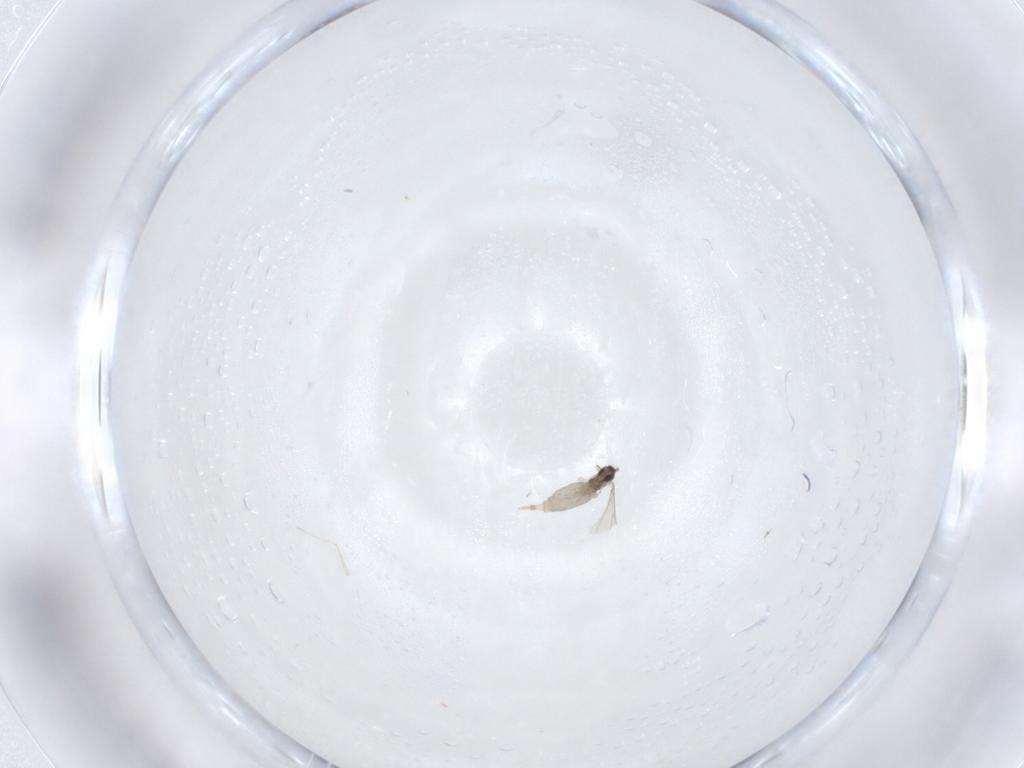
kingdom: Animalia
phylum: Arthropoda
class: Insecta
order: Diptera
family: Cecidomyiidae
